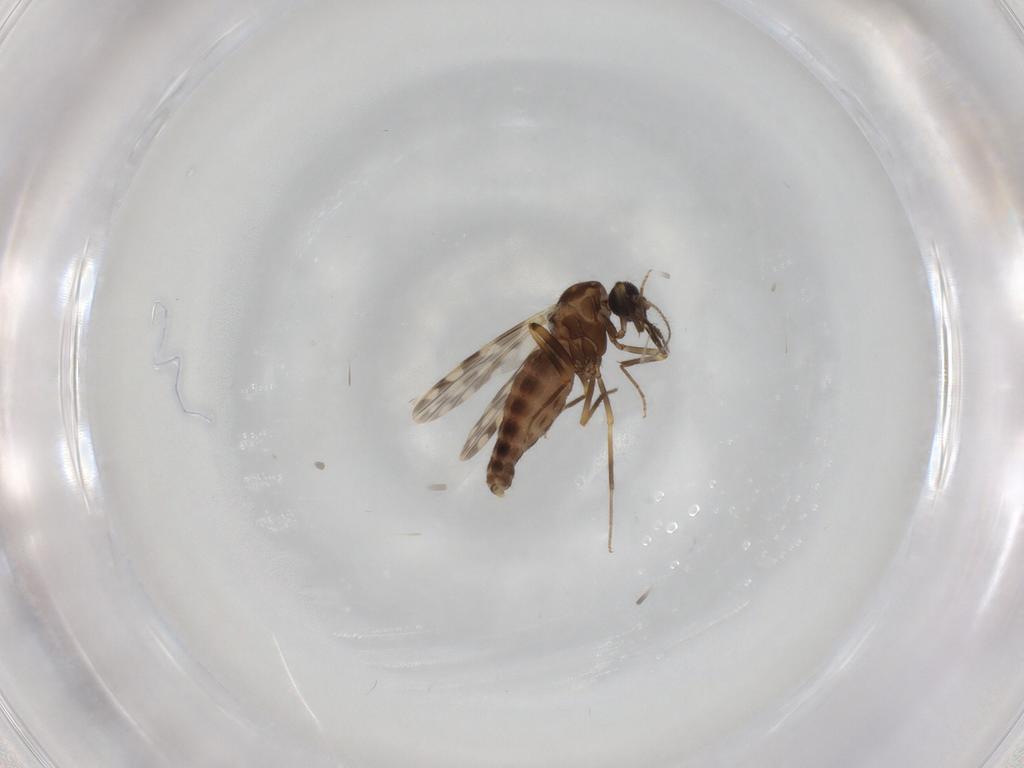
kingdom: Animalia
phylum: Arthropoda
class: Insecta
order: Diptera
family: Ceratopogonidae
